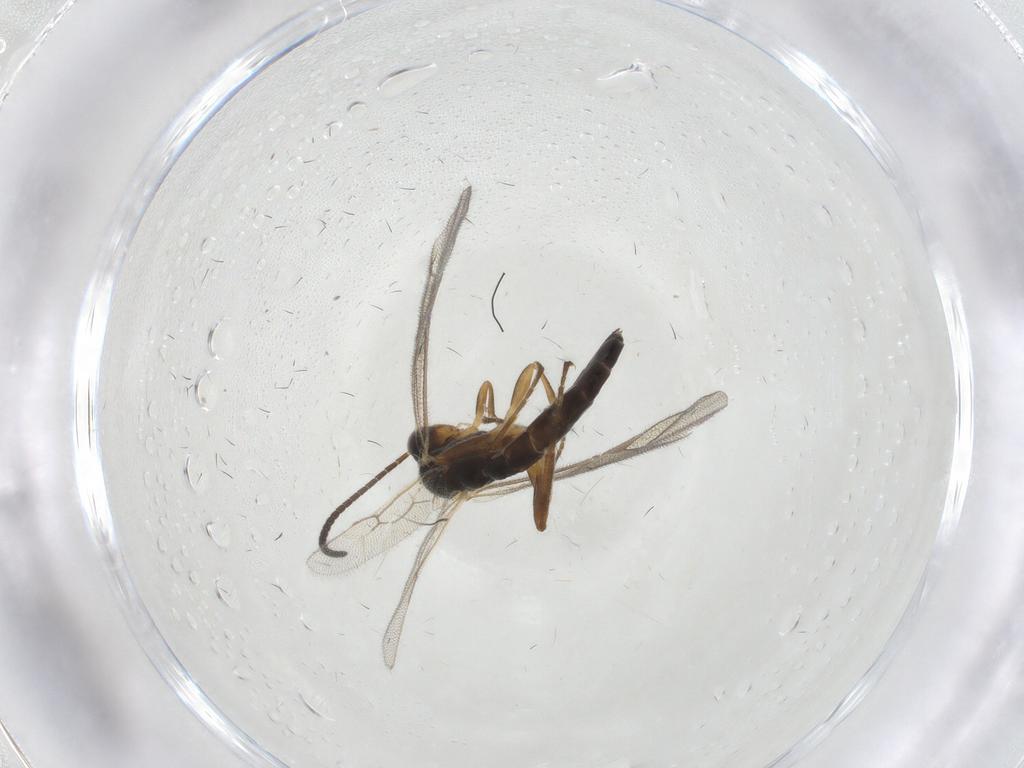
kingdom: Animalia
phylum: Arthropoda
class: Insecta
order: Hymenoptera
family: Ichneumonidae
